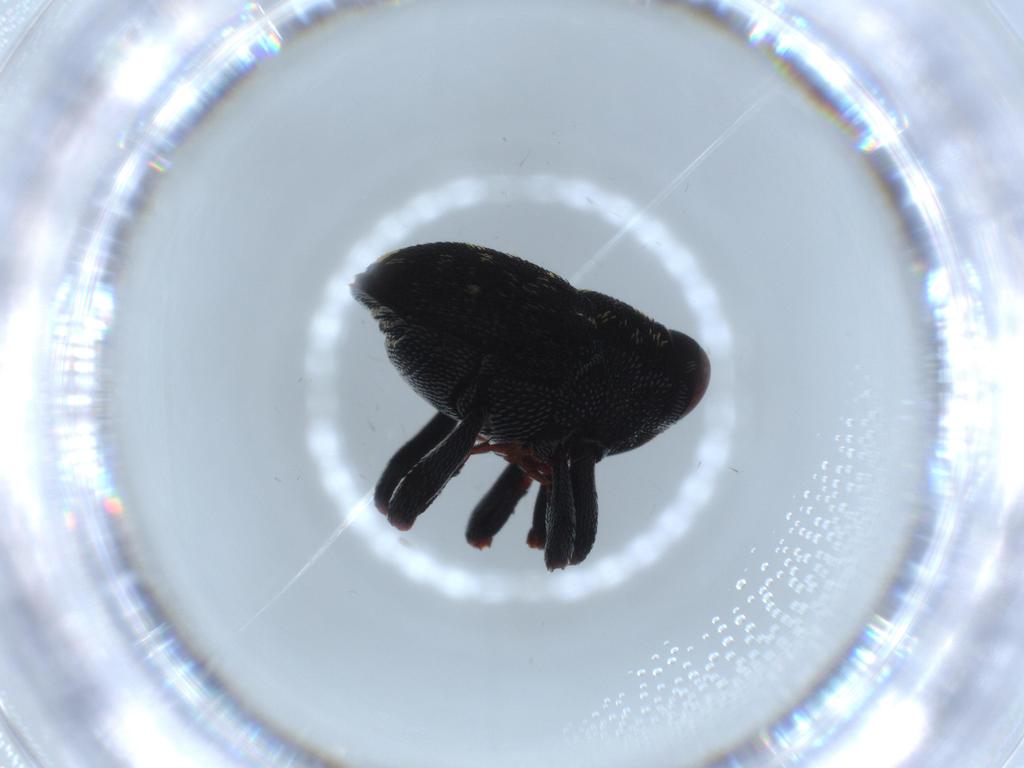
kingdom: Animalia
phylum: Arthropoda
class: Insecta
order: Coleoptera
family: Curculionidae
